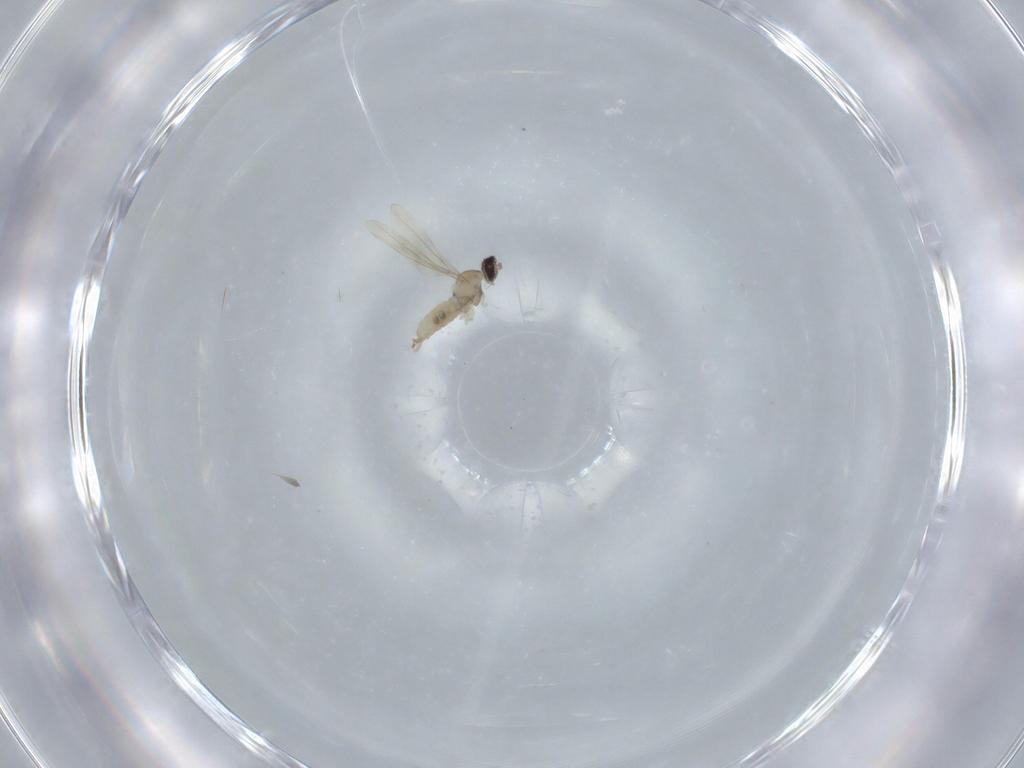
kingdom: Animalia
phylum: Arthropoda
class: Insecta
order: Diptera
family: Cecidomyiidae
